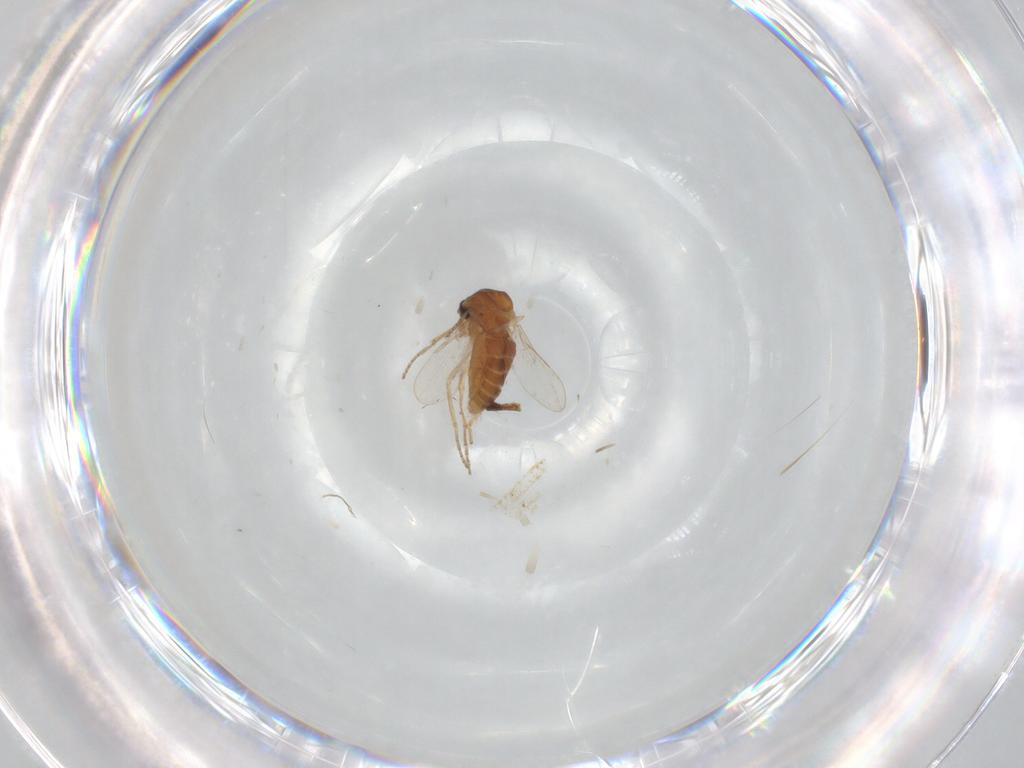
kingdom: Animalia
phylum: Arthropoda
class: Insecta
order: Diptera
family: Ceratopogonidae
